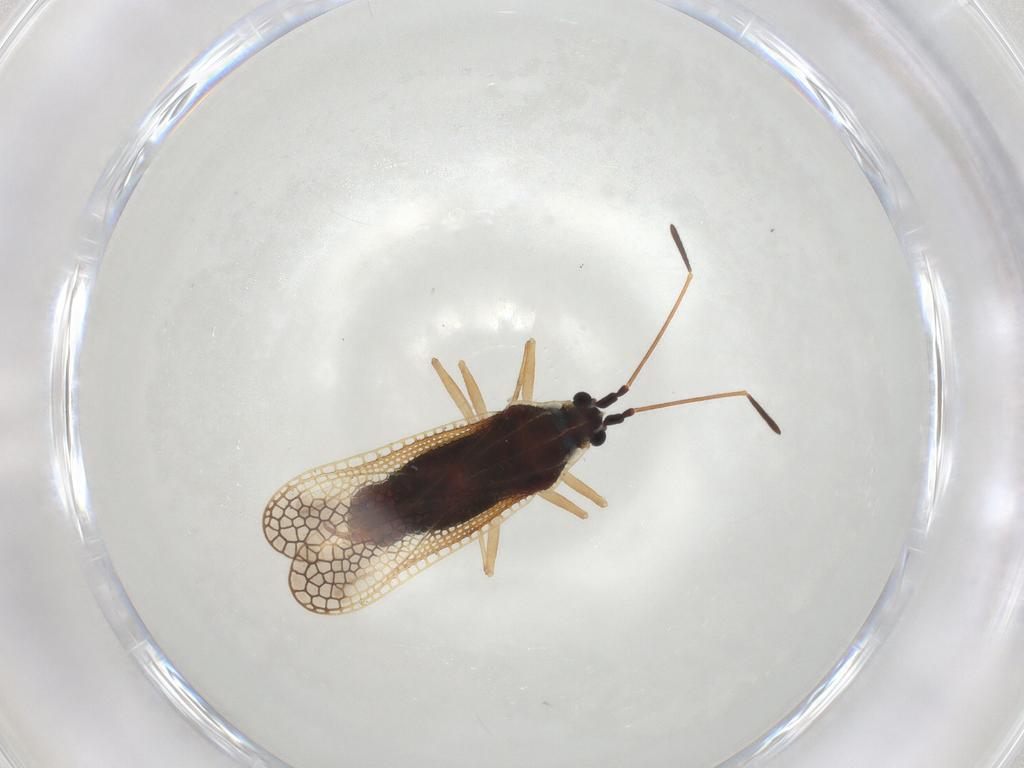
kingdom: Animalia
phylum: Arthropoda
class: Insecta
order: Hemiptera
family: Tingidae
